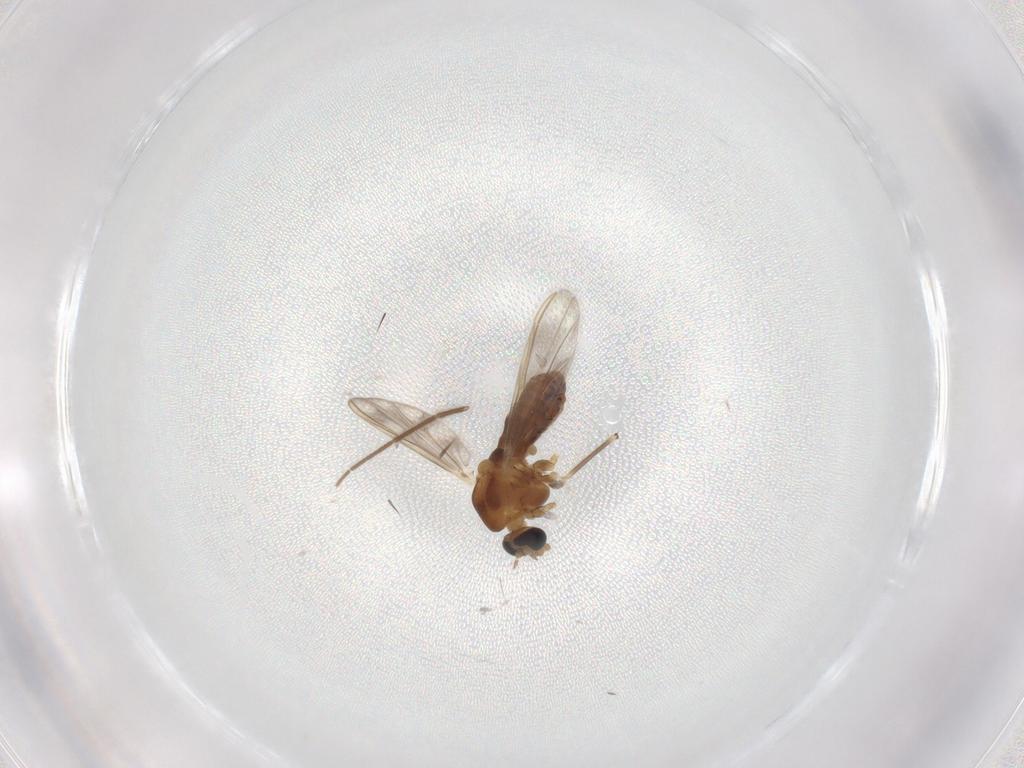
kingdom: Animalia
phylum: Arthropoda
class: Insecta
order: Diptera
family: Chironomidae
